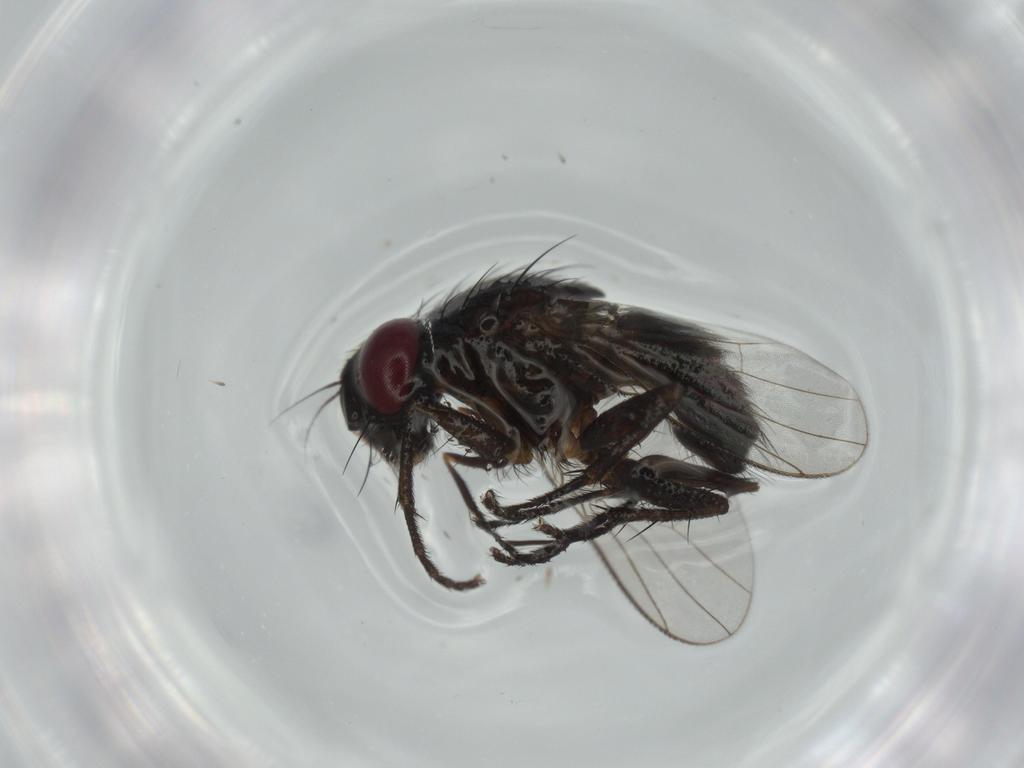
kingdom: Animalia
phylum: Arthropoda
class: Insecta
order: Diptera
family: Muscidae
